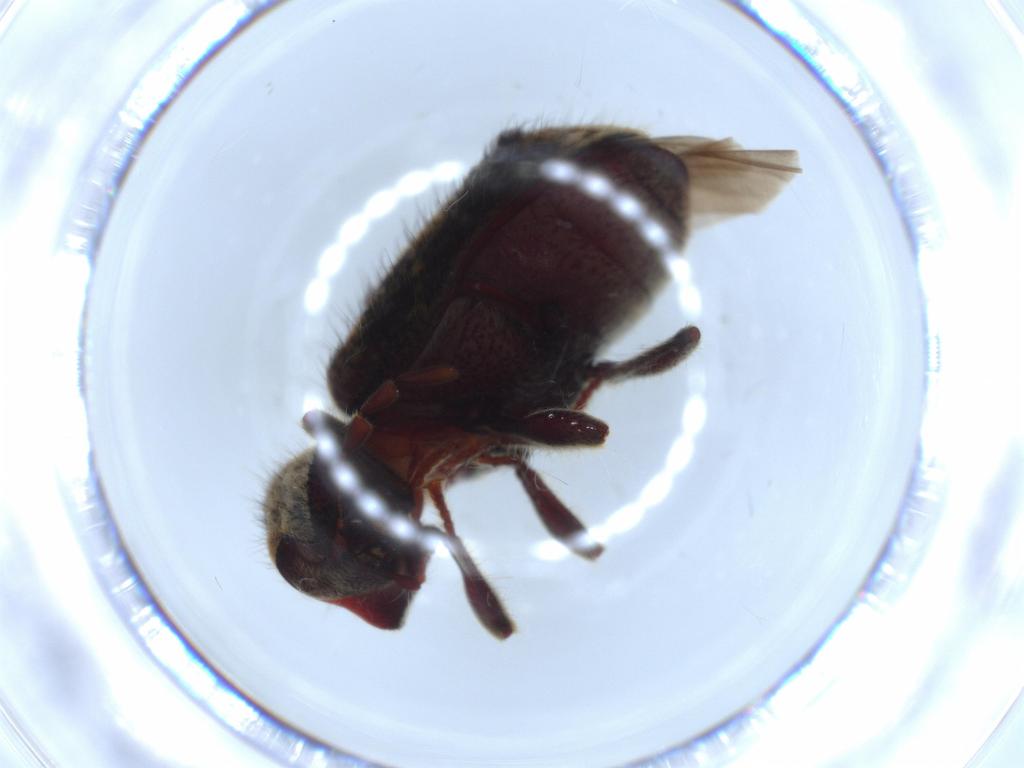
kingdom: Animalia
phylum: Arthropoda
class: Insecta
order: Coleoptera
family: Ptinidae
